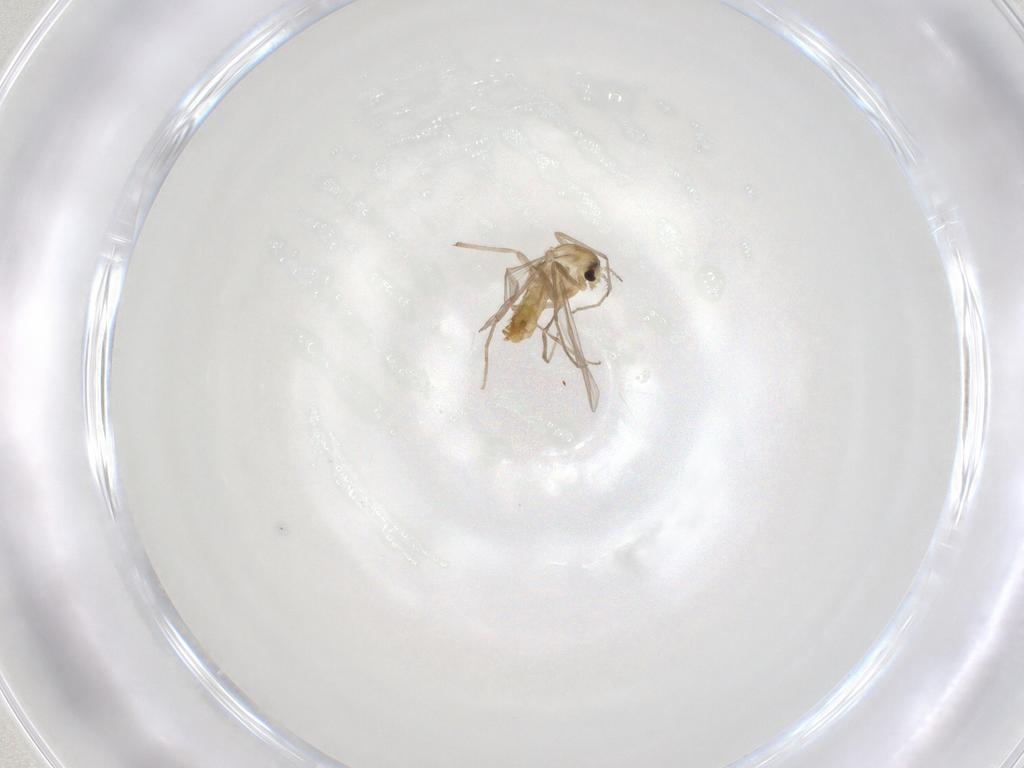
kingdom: Animalia
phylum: Arthropoda
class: Insecta
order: Diptera
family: Chironomidae
